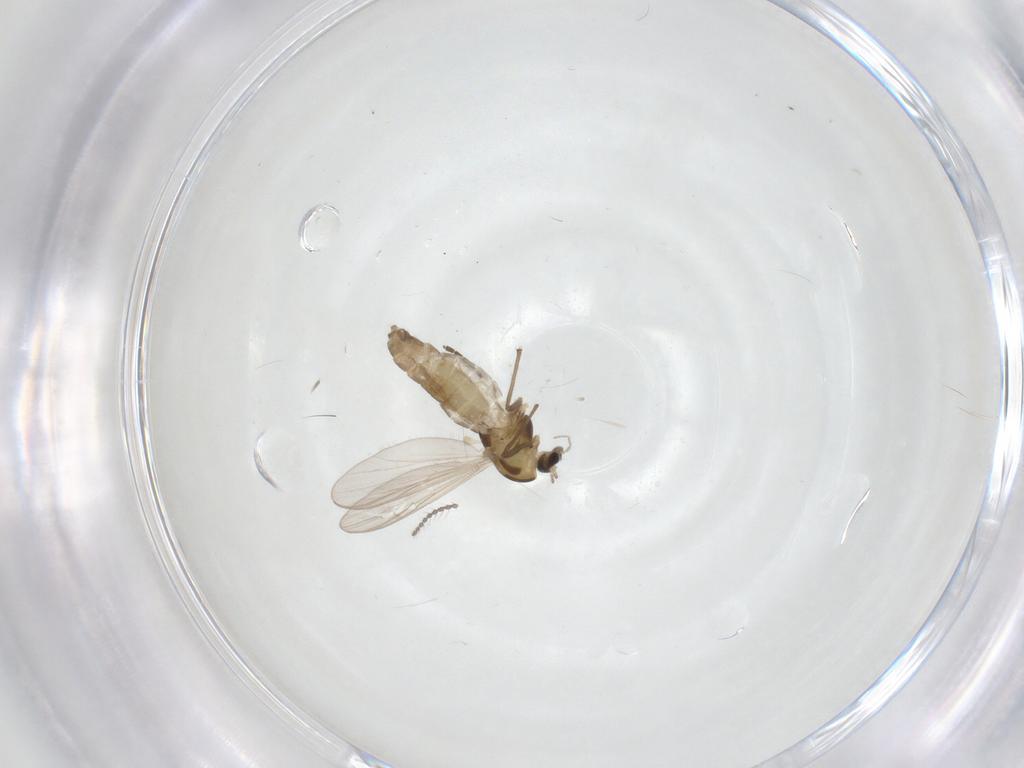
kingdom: Animalia
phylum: Arthropoda
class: Insecta
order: Diptera
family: Sciaridae
